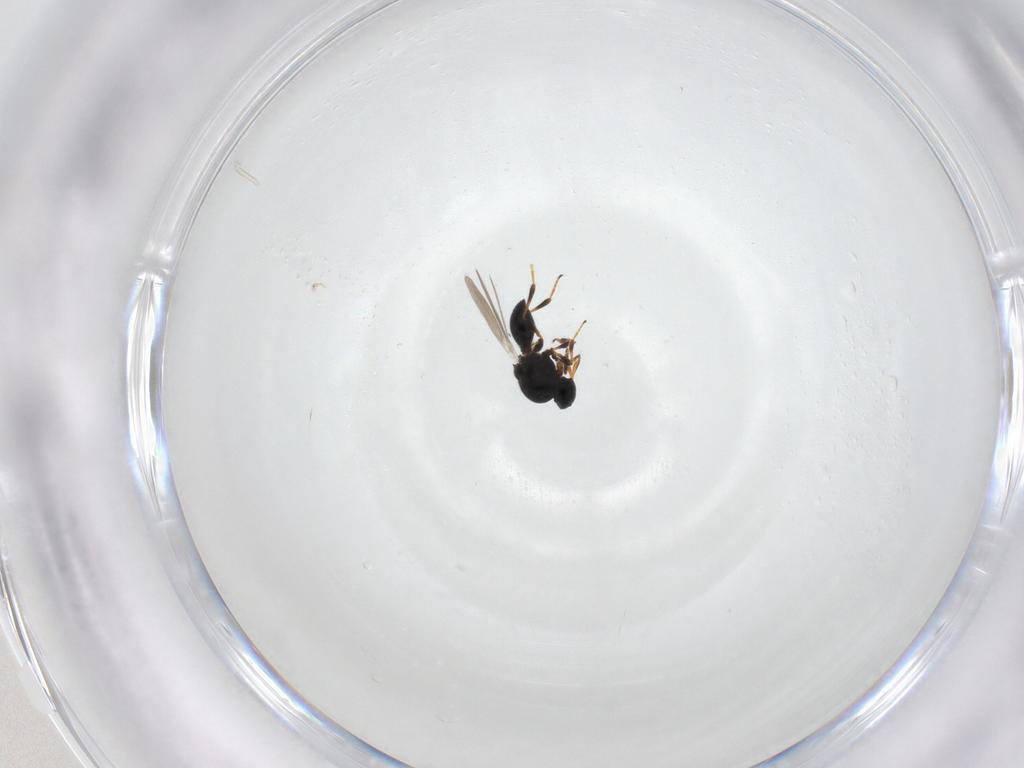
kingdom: Animalia
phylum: Arthropoda
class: Insecta
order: Hymenoptera
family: Platygastridae
